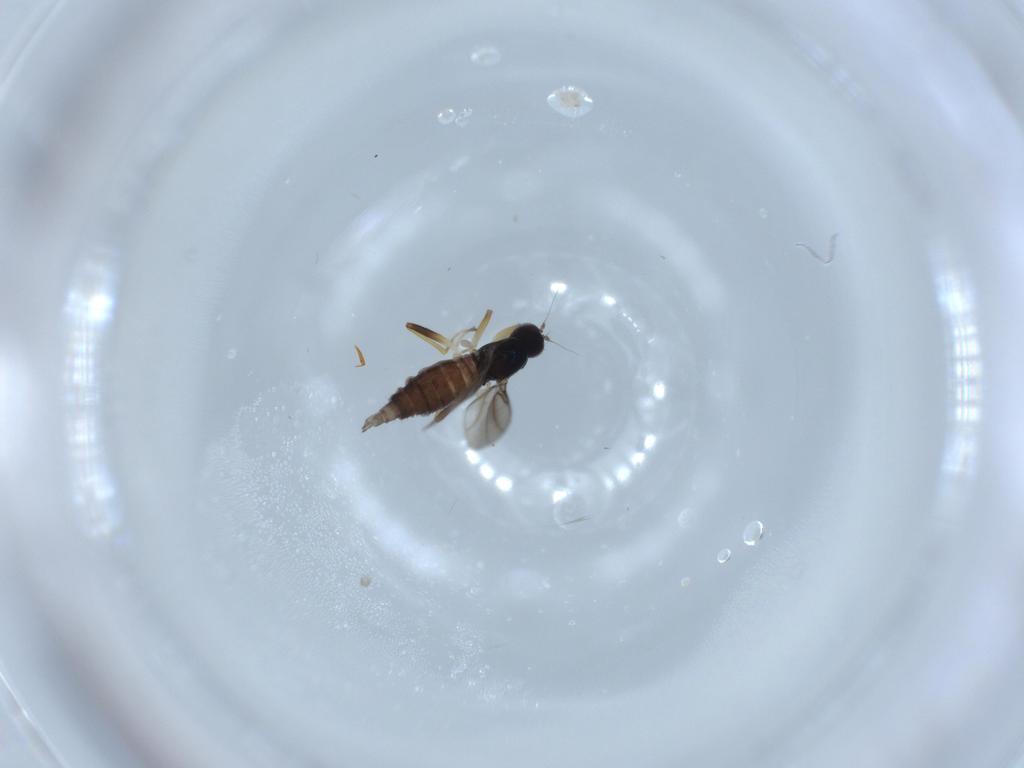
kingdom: Animalia
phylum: Arthropoda
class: Insecta
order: Diptera
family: Hybotidae
